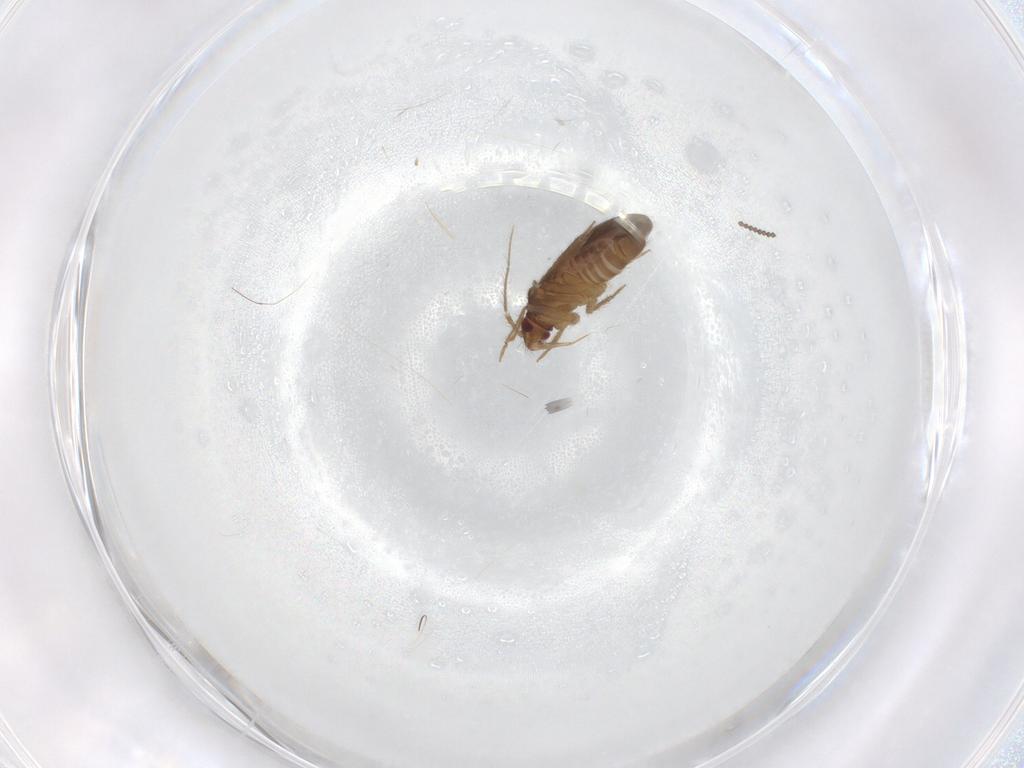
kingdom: Animalia
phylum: Arthropoda
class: Insecta
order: Hemiptera
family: Ceratocombidae
